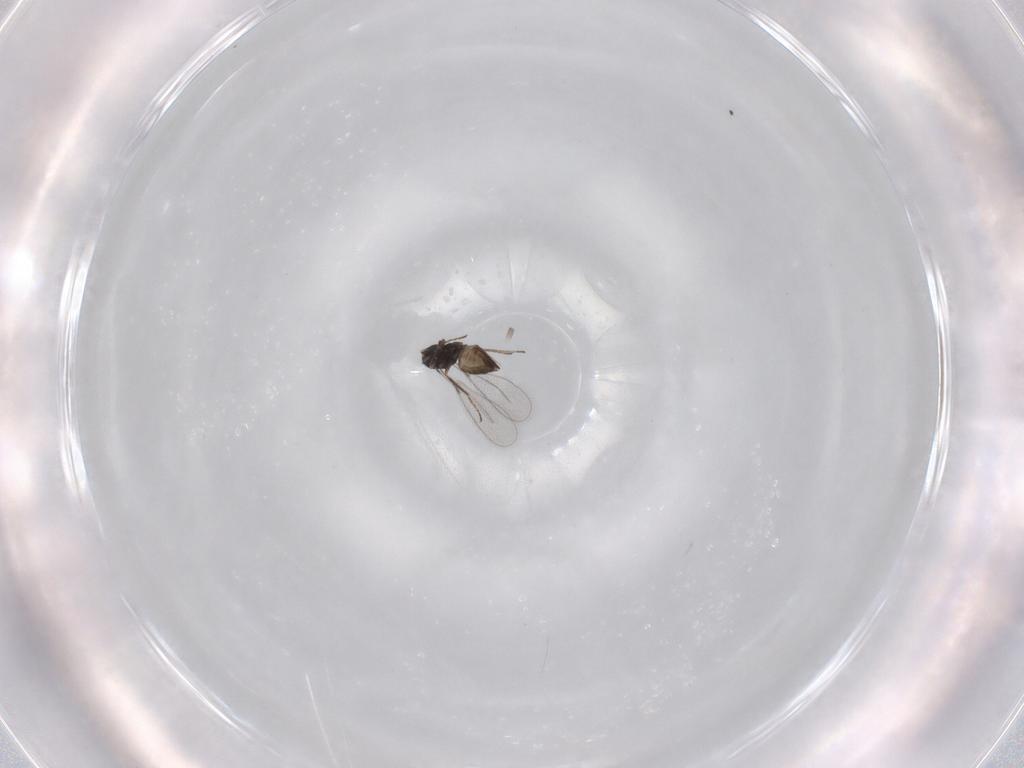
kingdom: Animalia
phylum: Arthropoda
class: Insecta
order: Hymenoptera
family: Mymaridae
